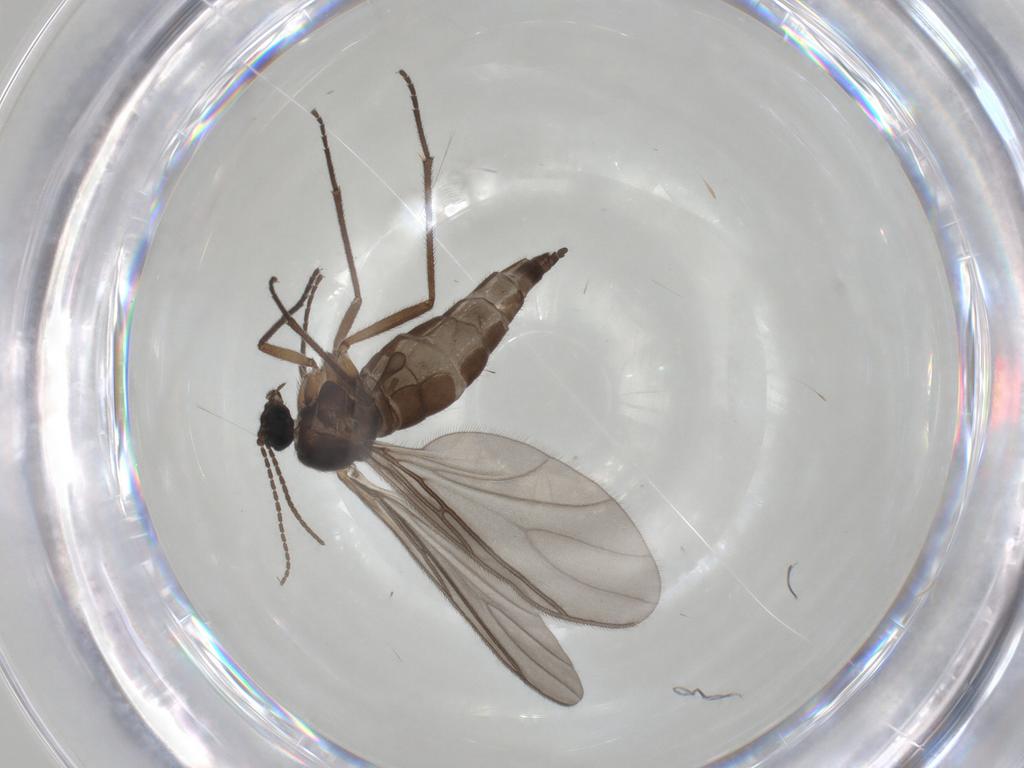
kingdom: Animalia
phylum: Arthropoda
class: Insecta
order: Diptera
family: Sciaridae
